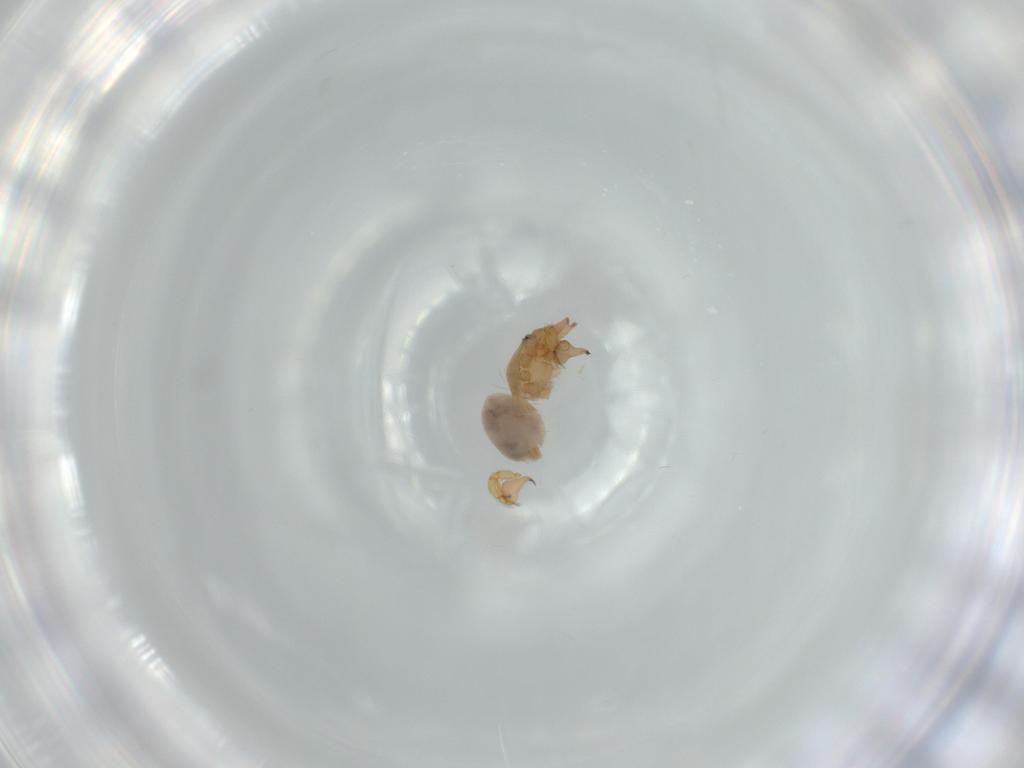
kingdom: Animalia
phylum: Arthropoda
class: Arachnida
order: Araneae
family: Oonopidae
